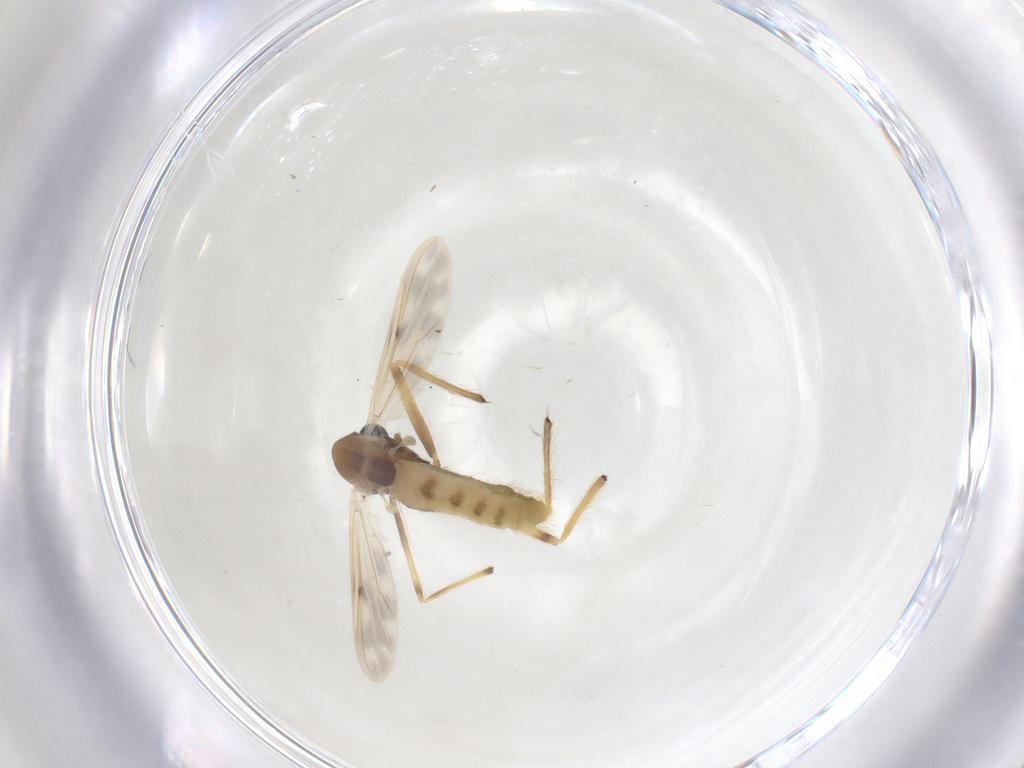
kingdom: Animalia
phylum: Arthropoda
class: Insecta
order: Diptera
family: Chironomidae
